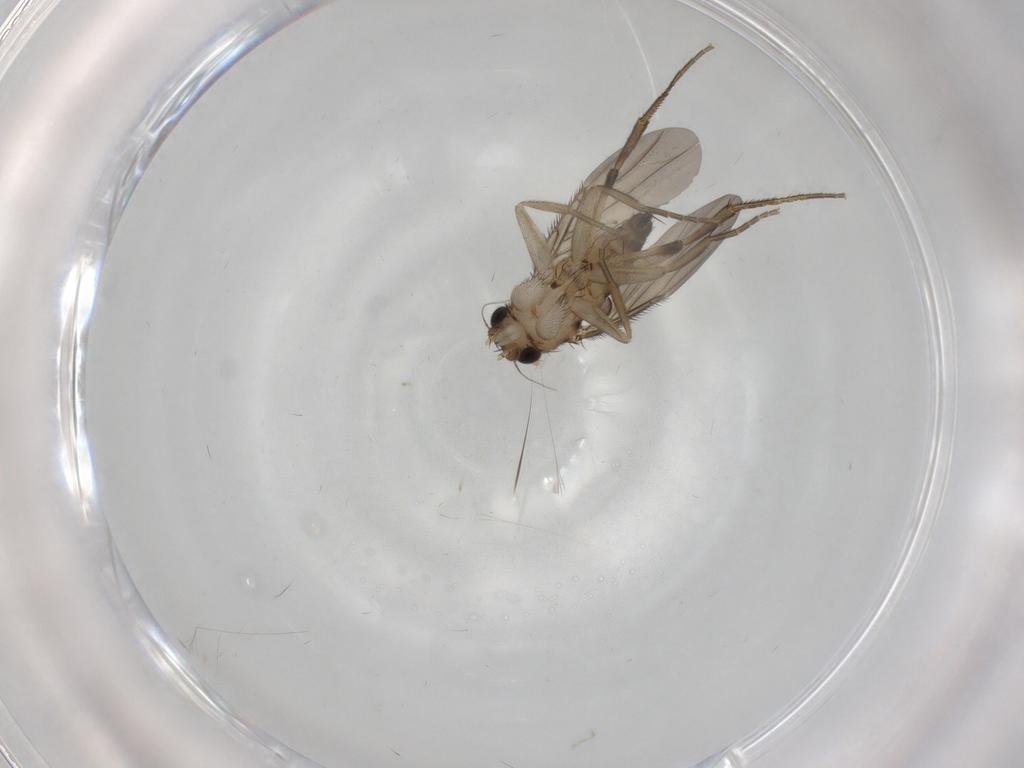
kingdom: Animalia
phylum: Arthropoda
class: Insecta
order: Diptera
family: Phoridae
